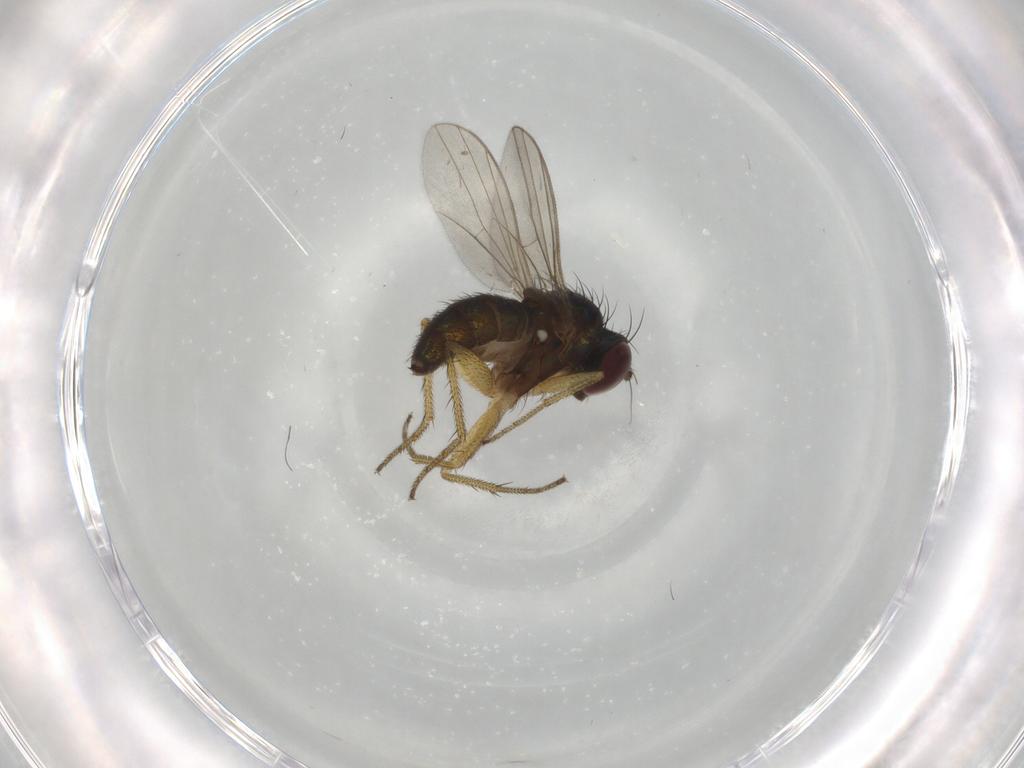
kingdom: Animalia
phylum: Arthropoda
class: Insecta
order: Diptera
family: Dolichopodidae
